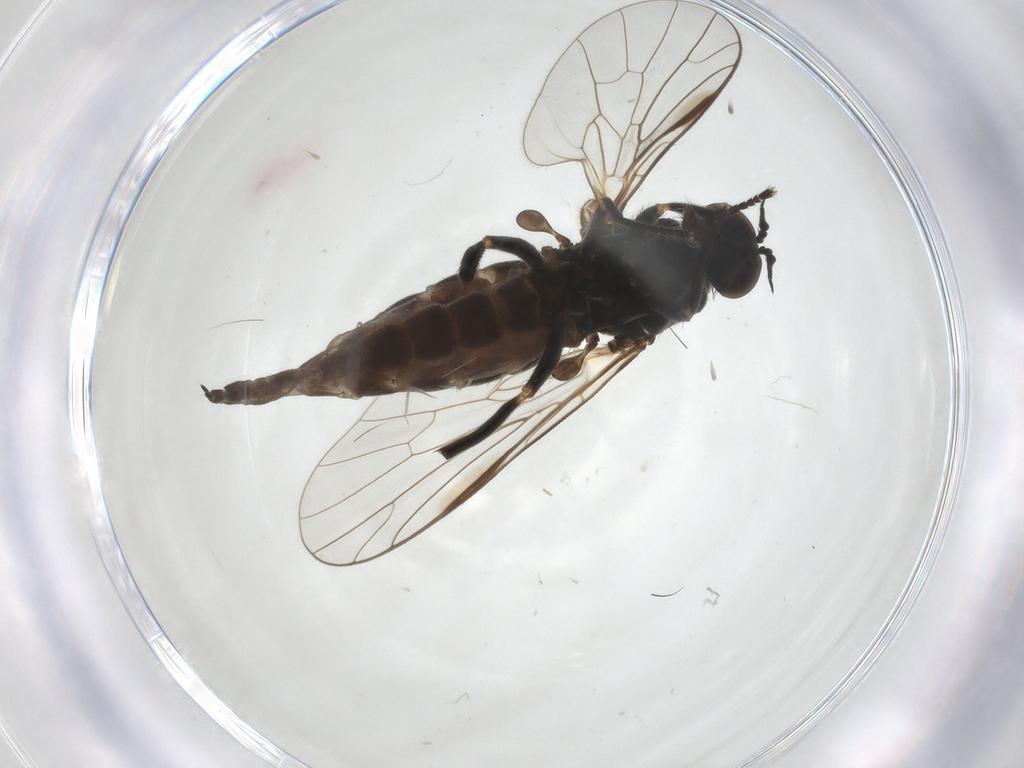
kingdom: Animalia
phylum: Arthropoda
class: Insecta
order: Diptera
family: Empididae
